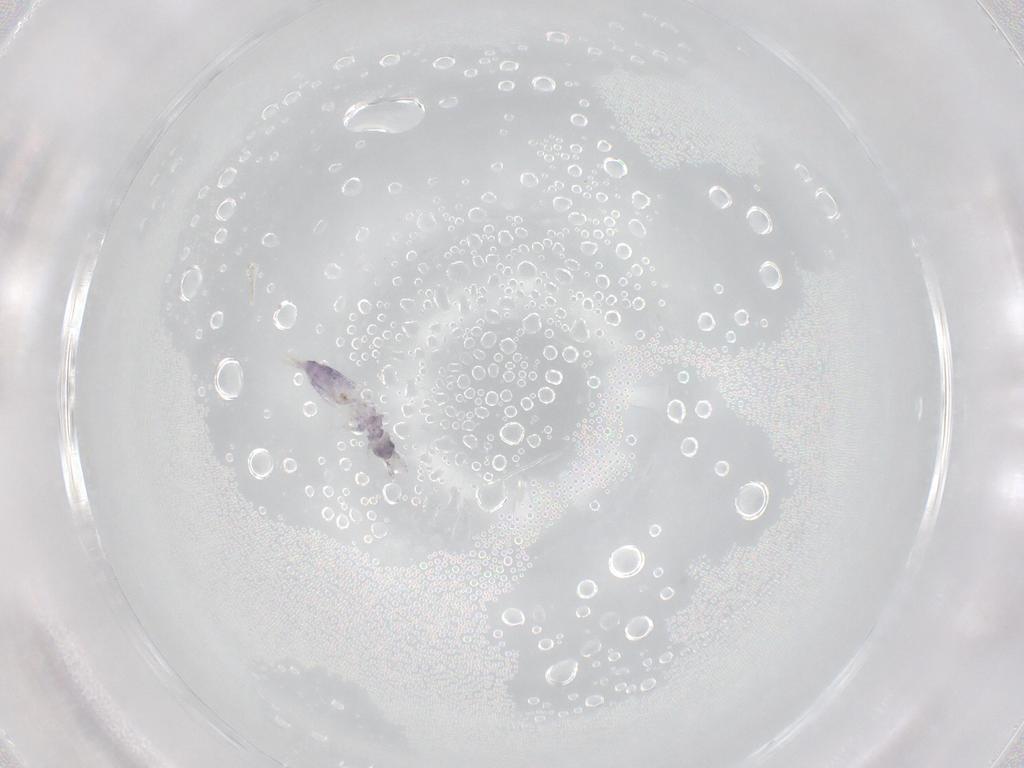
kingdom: Animalia
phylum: Arthropoda
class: Collembola
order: Entomobryomorpha
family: Entomobryidae
